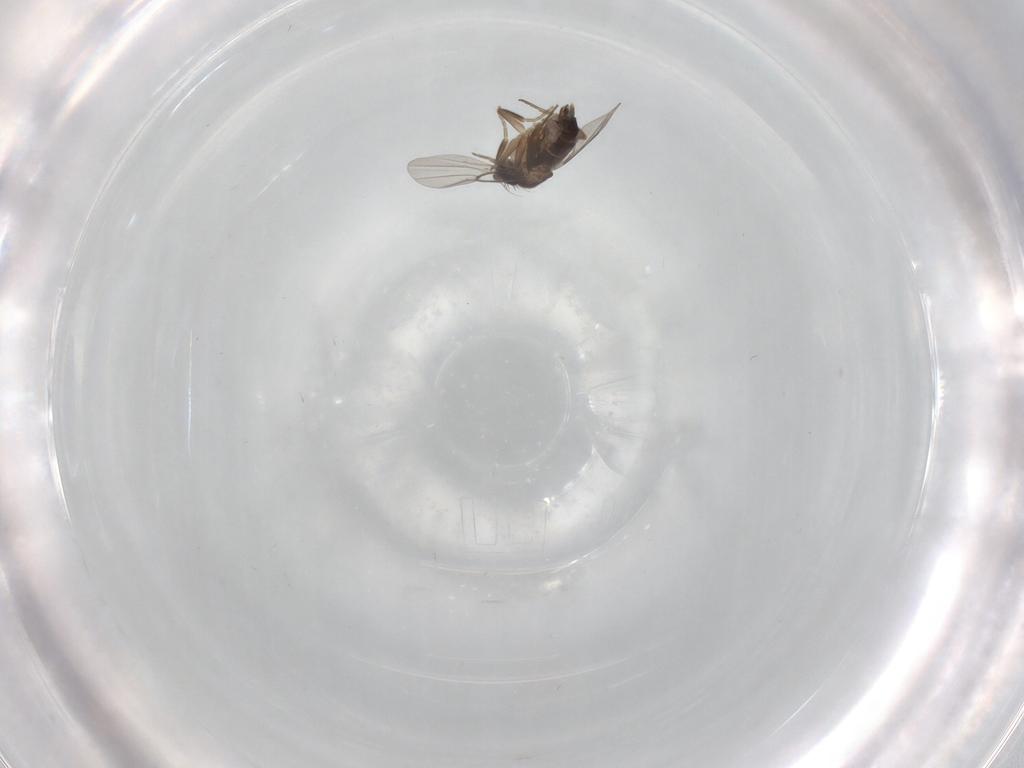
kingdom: Animalia
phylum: Arthropoda
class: Insecta
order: Diptera
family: Phoridae
